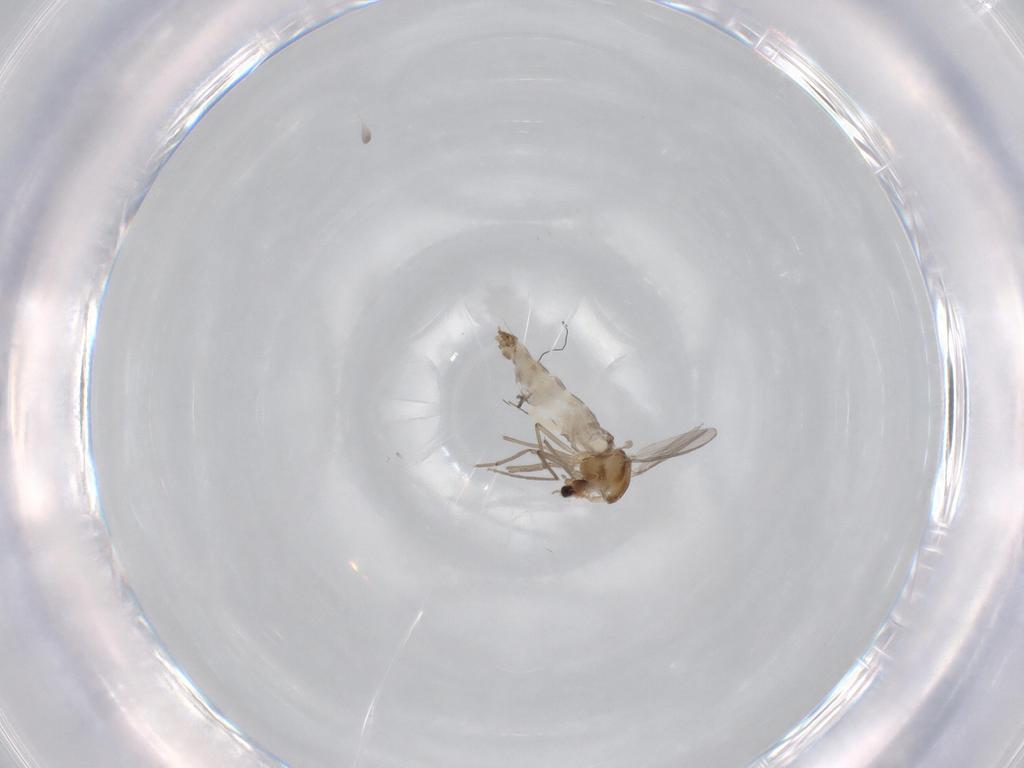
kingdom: Animalia
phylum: Arthropoda
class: Insecta
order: Diptera
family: Chironomidae
